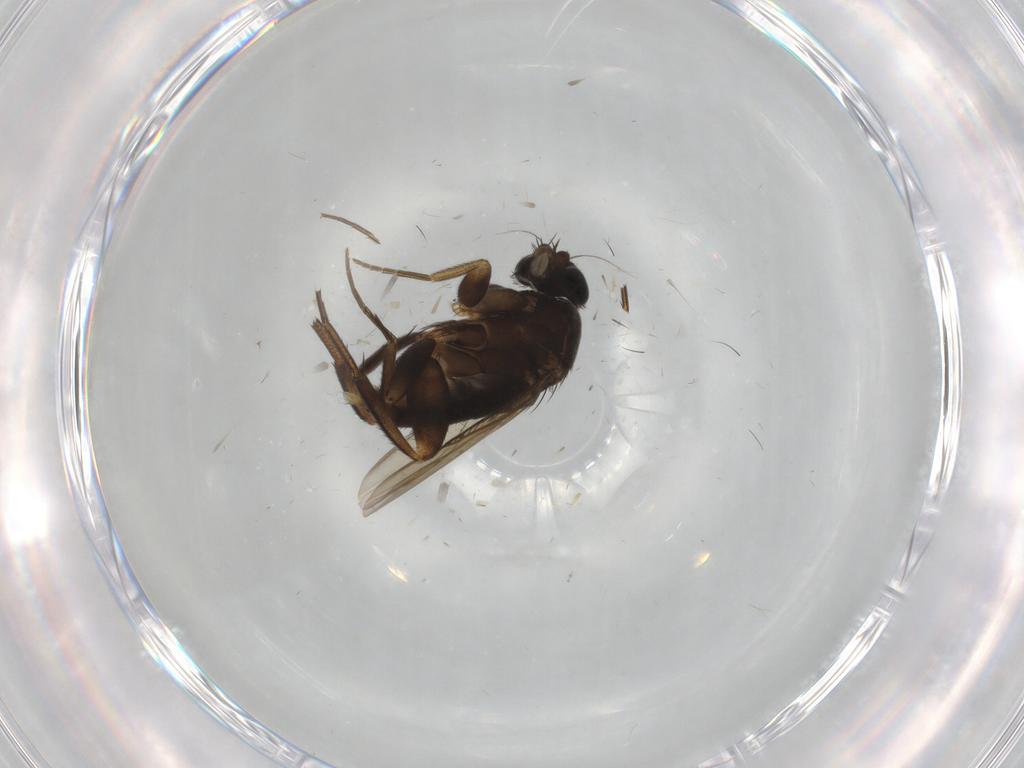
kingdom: Animalia
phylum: Arthropoda
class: Insecta
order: Diptera
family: Phoridae
